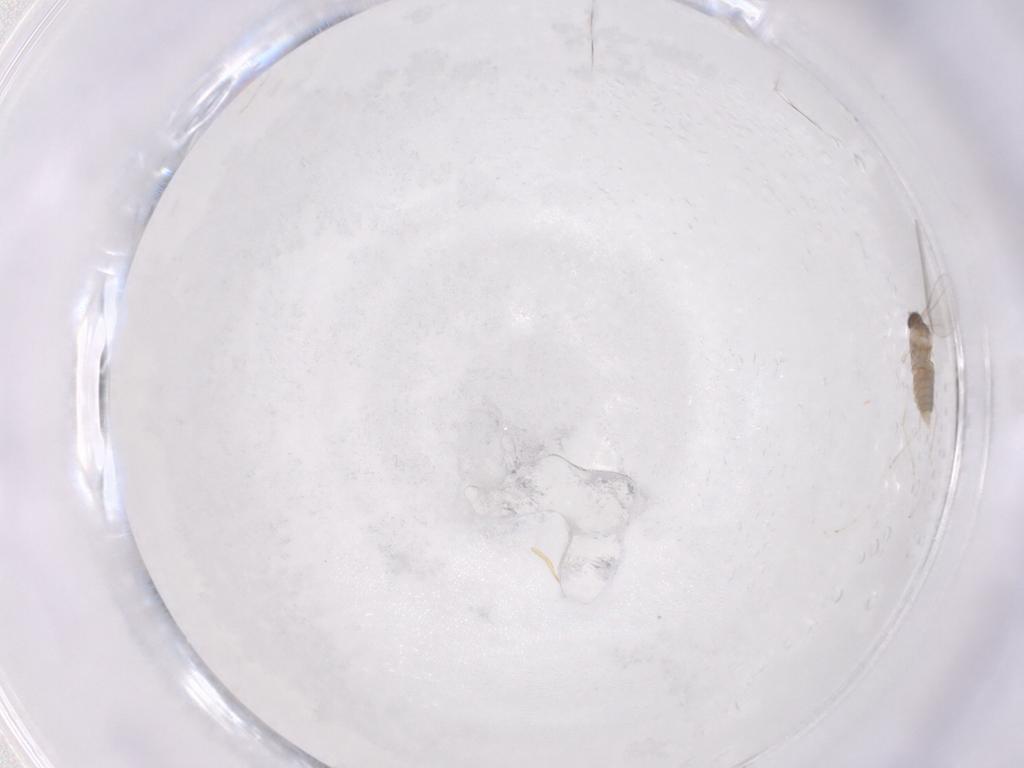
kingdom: Animalia
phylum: Arthropoda
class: Insecta
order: Diptera
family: Cecidomyiidae
